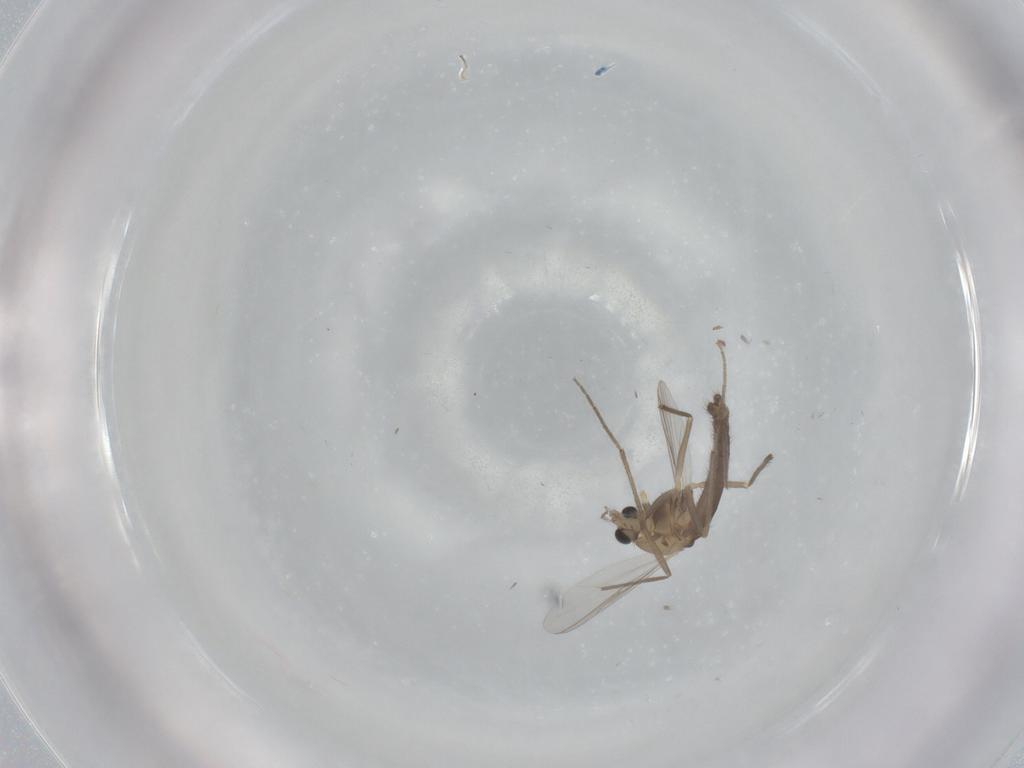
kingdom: Animalia
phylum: Arthropoda
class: Insecta
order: Diptera
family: Chironomidae
